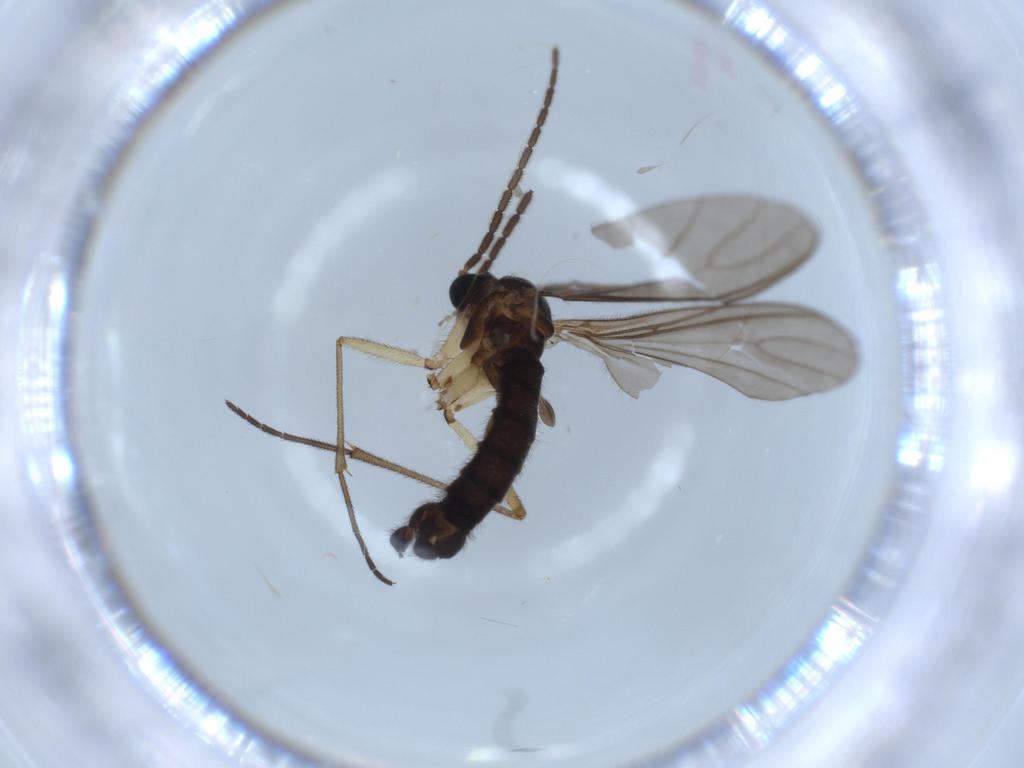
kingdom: Animalia
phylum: Arthropoda
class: Insecta
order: Diptera
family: Sciaridae
